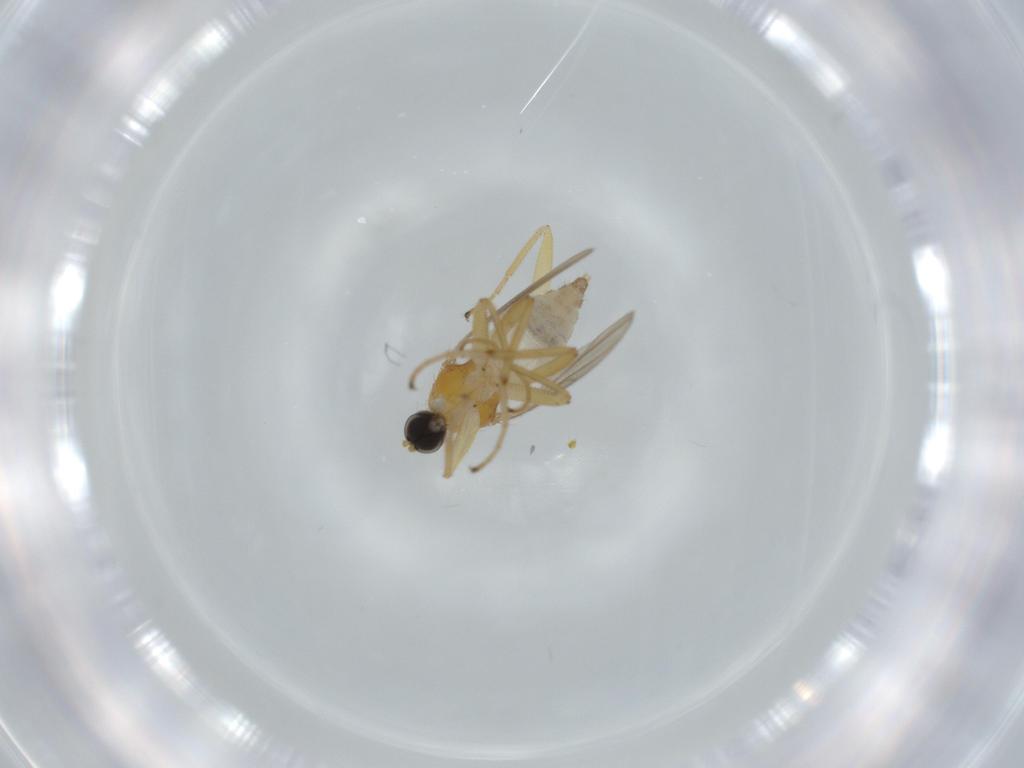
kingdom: Animalia
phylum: Arthropoda
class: Insecta
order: Diptera
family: Hybotidae
